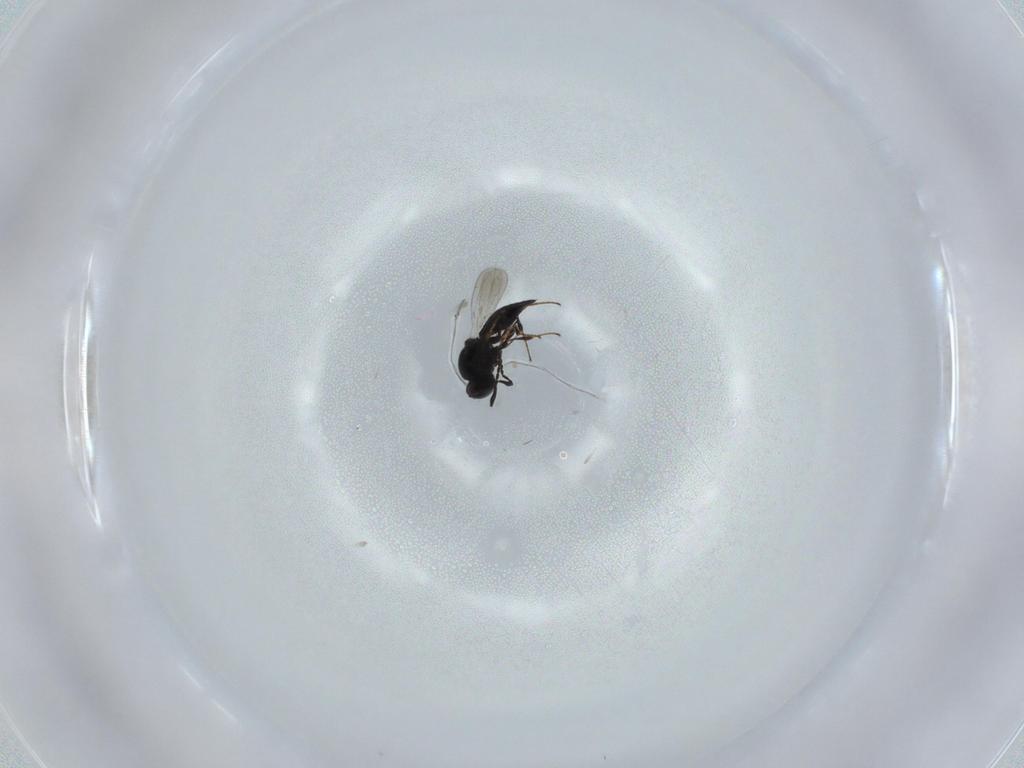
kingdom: Animalia
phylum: Arthropoda
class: Insecta
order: Diptera
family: Mythicomyiidae
